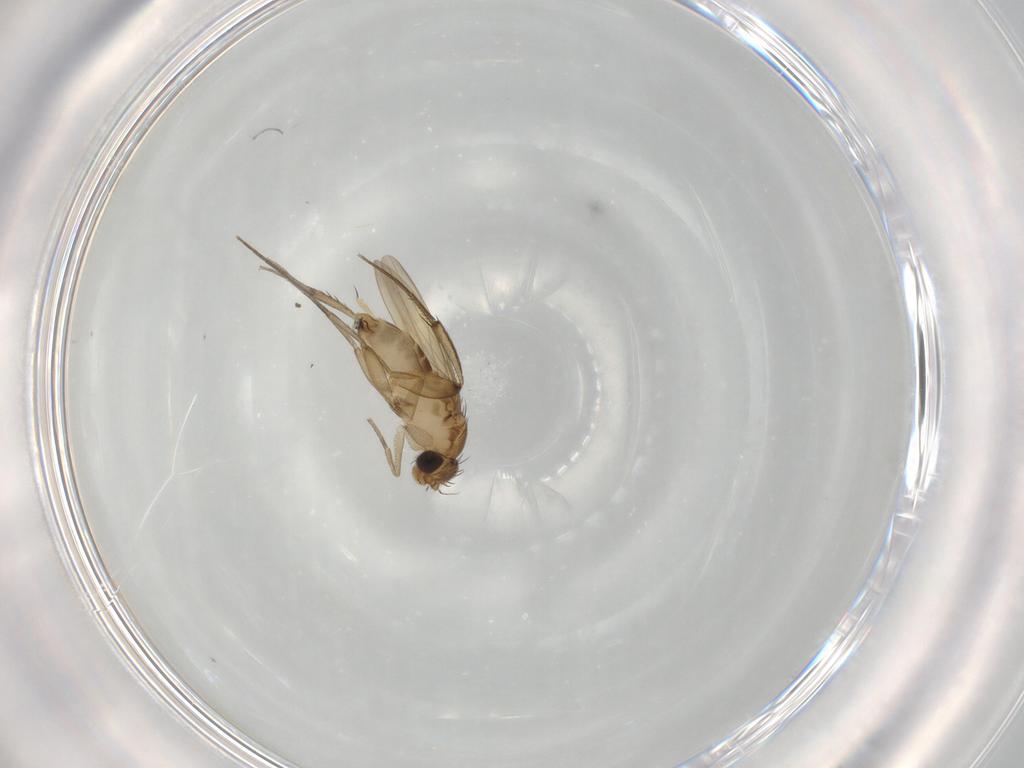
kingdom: Animalia
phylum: Arthropoda
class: Insecta
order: Diptera
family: Phoridae
